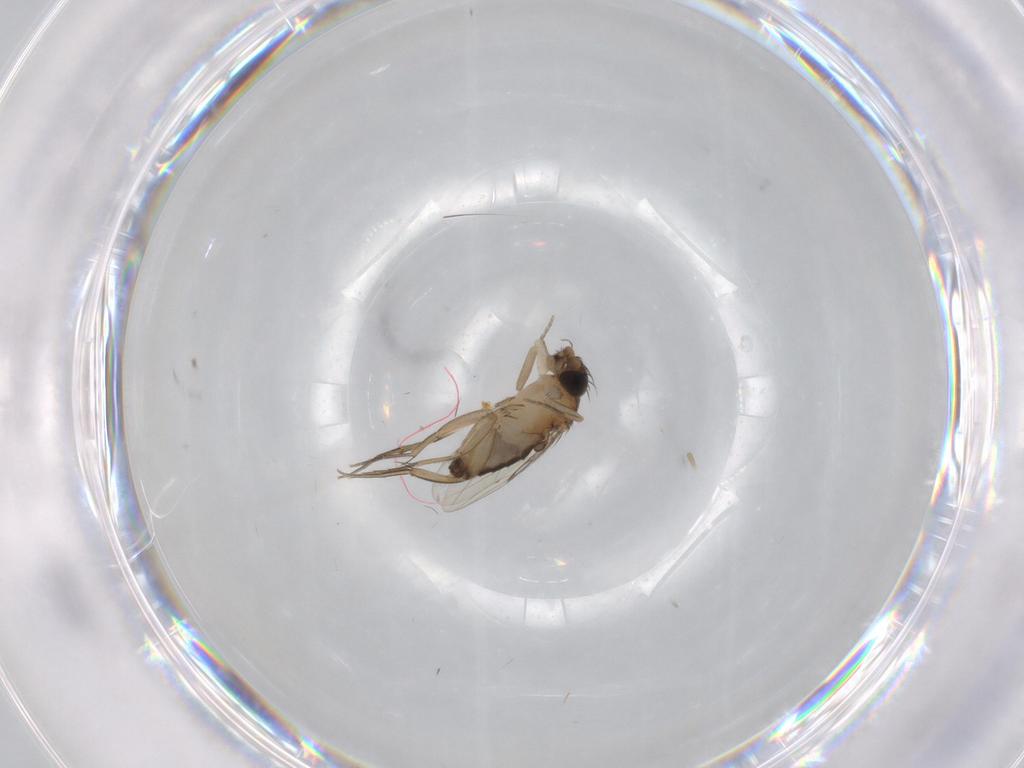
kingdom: Animalia
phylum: Arthropoda
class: Insecta
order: Diptera
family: Phoridae
